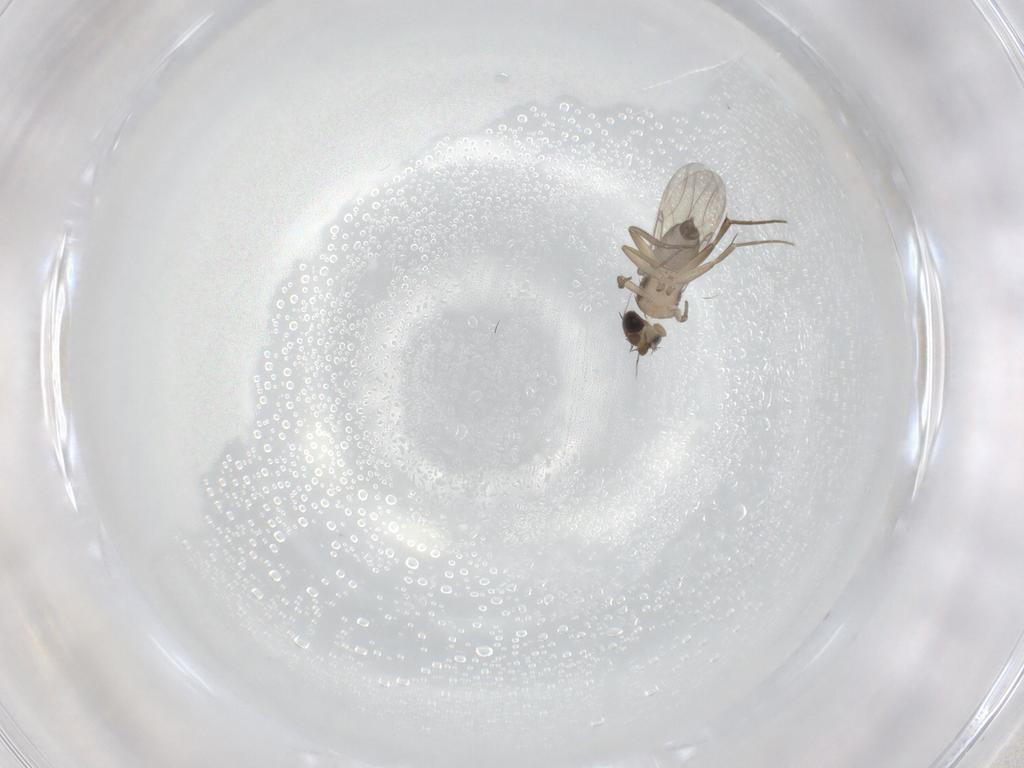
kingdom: Animalia
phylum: Arthropoda
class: Insecta
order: Diptera
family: Phoridae
